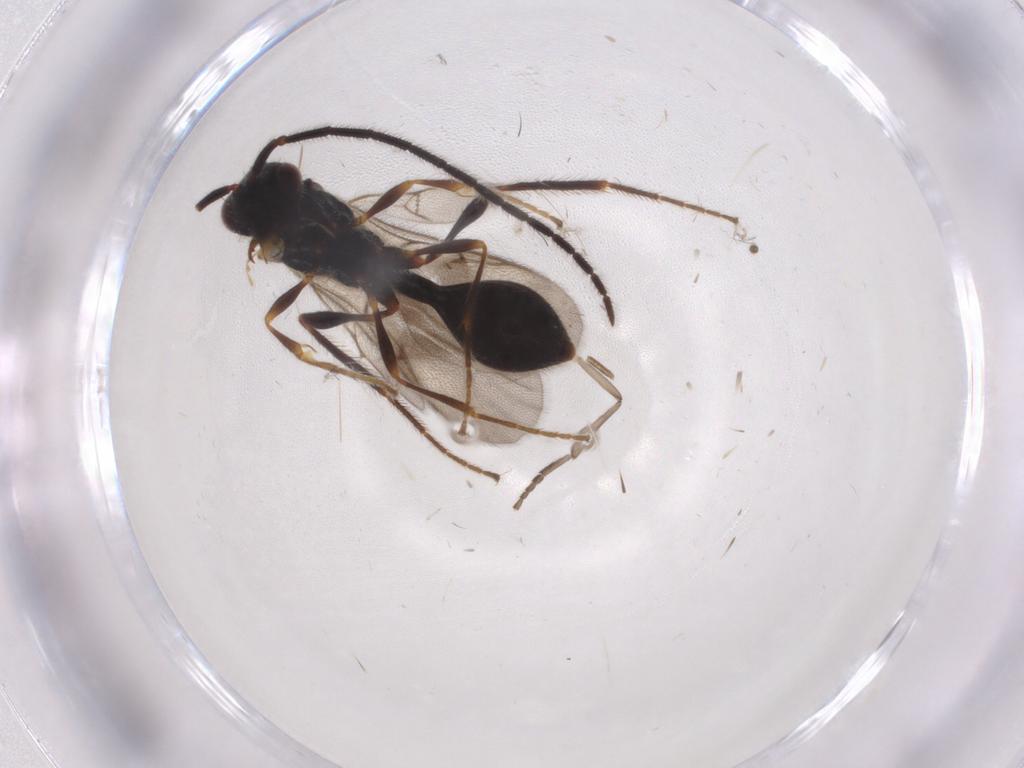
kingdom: Animalia
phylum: Arthropoda
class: Insecta
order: Hymenoptera
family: Diapriidae
